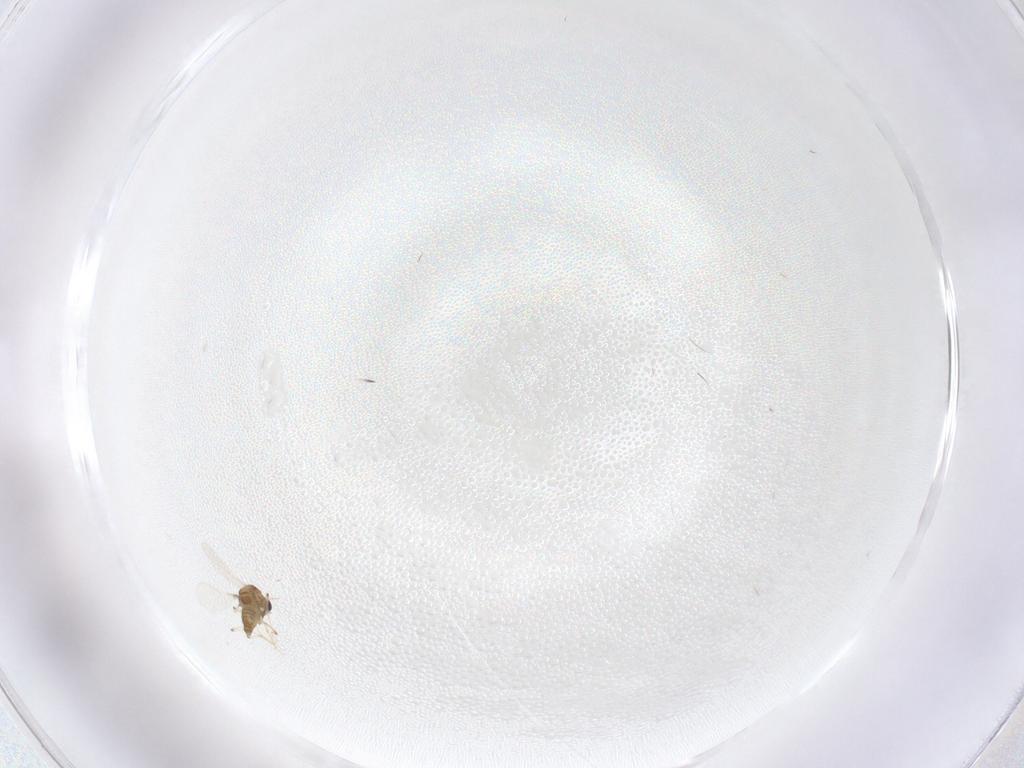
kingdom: Animalia
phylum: Arthropoda
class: Insecta
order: Diptera
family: Chironomidae
